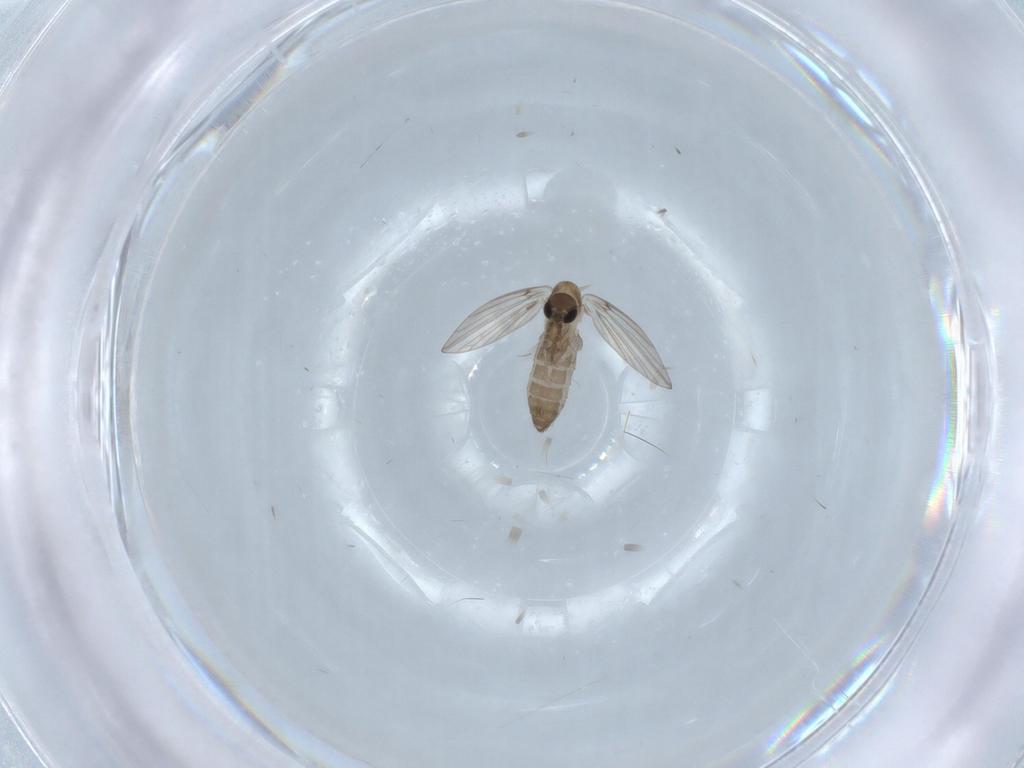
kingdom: Animalia
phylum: Arthropoda
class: Insecta
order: Diptera
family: Psychodidae
